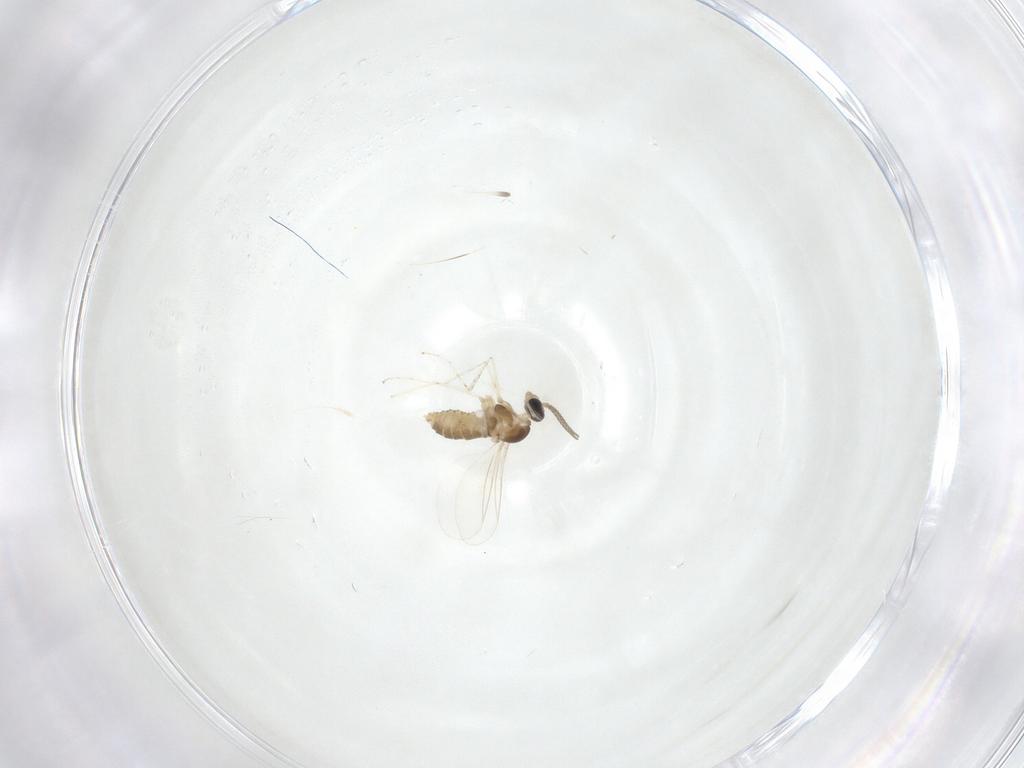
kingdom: Animalia
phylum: Arthropoda
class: Insecta
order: Diptera
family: Cecidomyiidae
